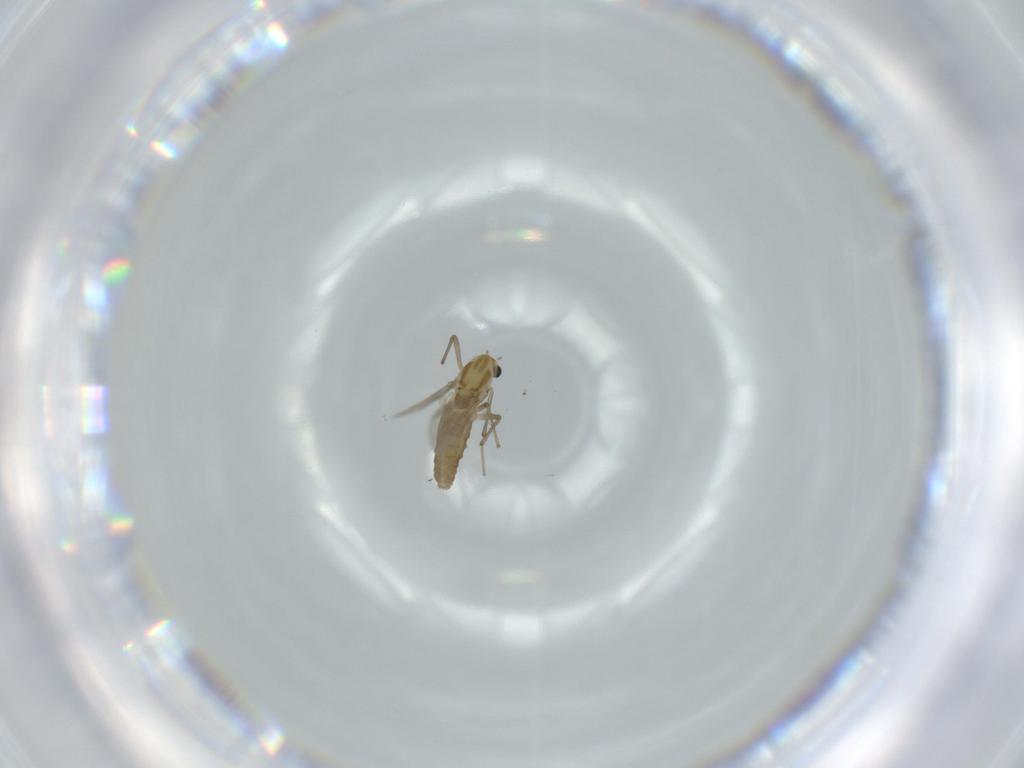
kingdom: Animalia
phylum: Arthropoda
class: Insecta
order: Diptera
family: Chironomidae
